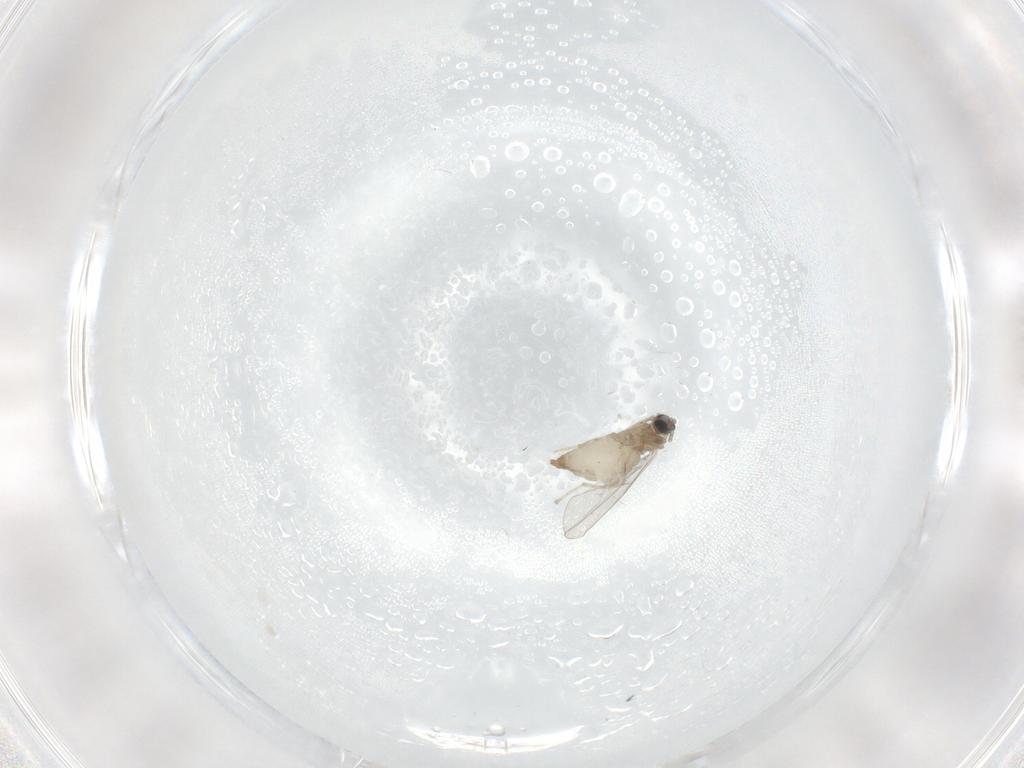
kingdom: Animalia
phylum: Arthropoda
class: Insecta
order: Diptera
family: Cecidomyiidae
